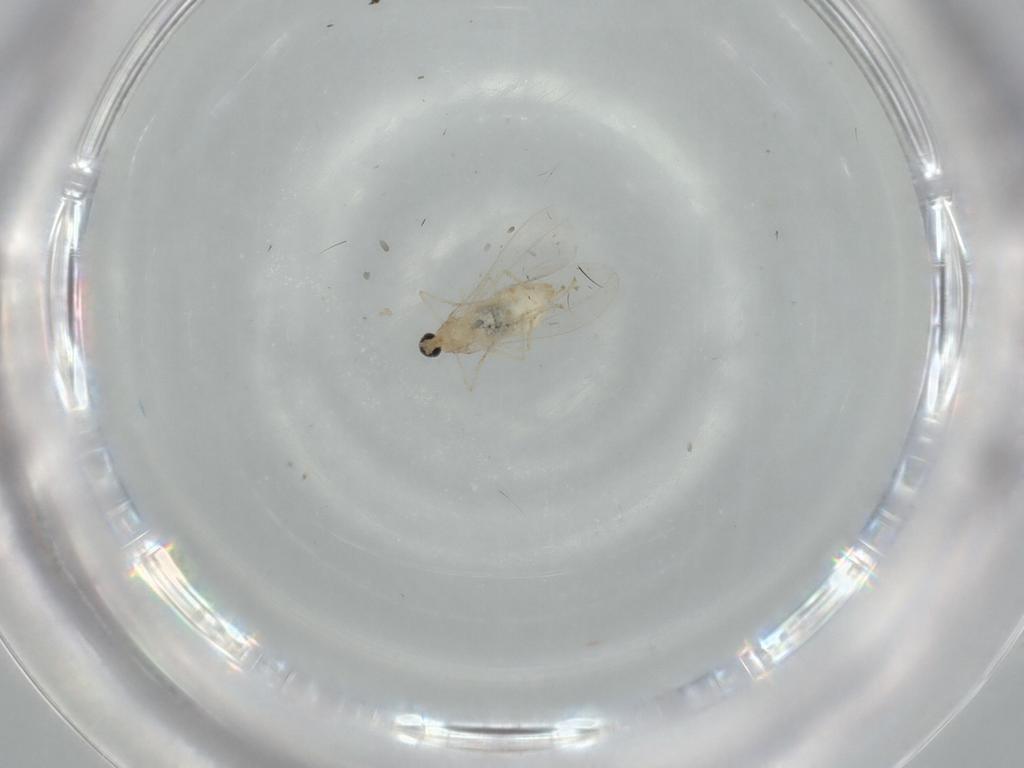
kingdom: Animalia
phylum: Arthropoda
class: Insecta
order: Diptera
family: Cecidomyiidae
